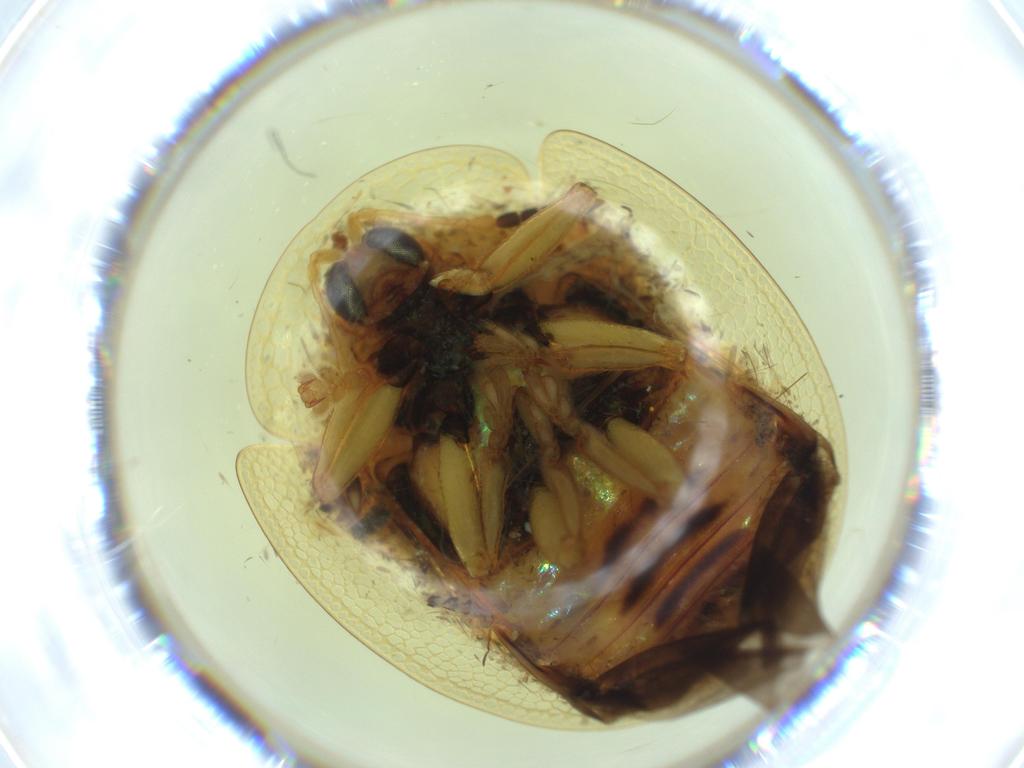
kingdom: Animalia
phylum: Arthropoda
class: Insecta
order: Coleoptera
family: Cantharidae
